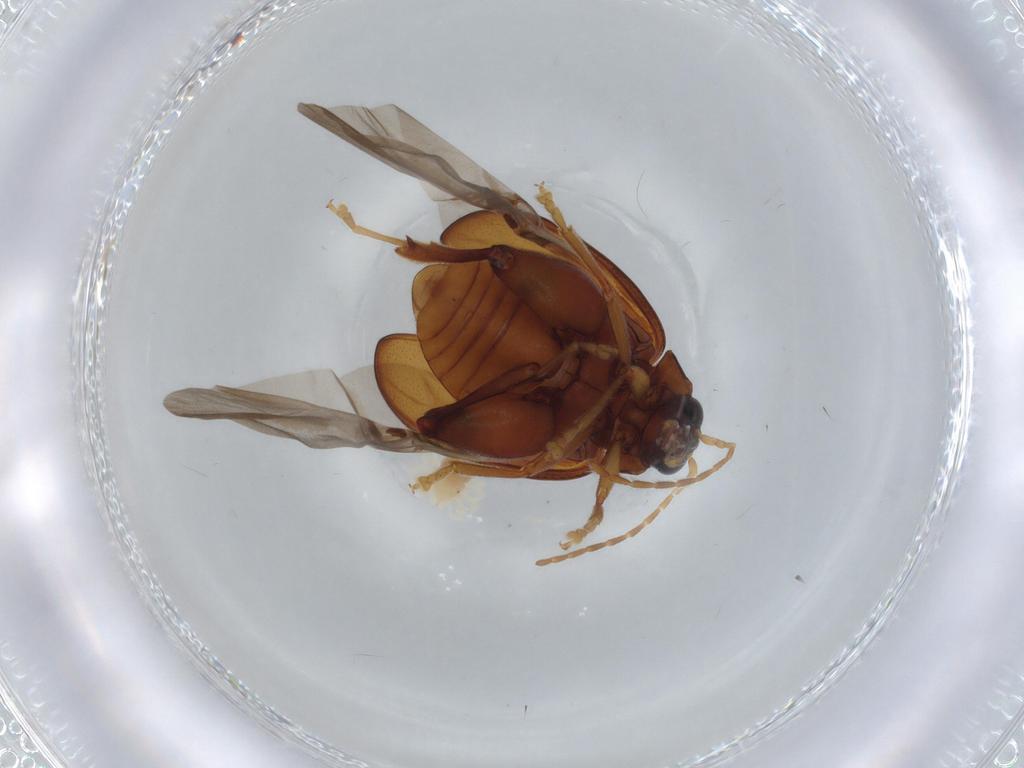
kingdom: Animalia
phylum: Arthropoda
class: Insecta
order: Coleoptera
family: Chrysomelidae
